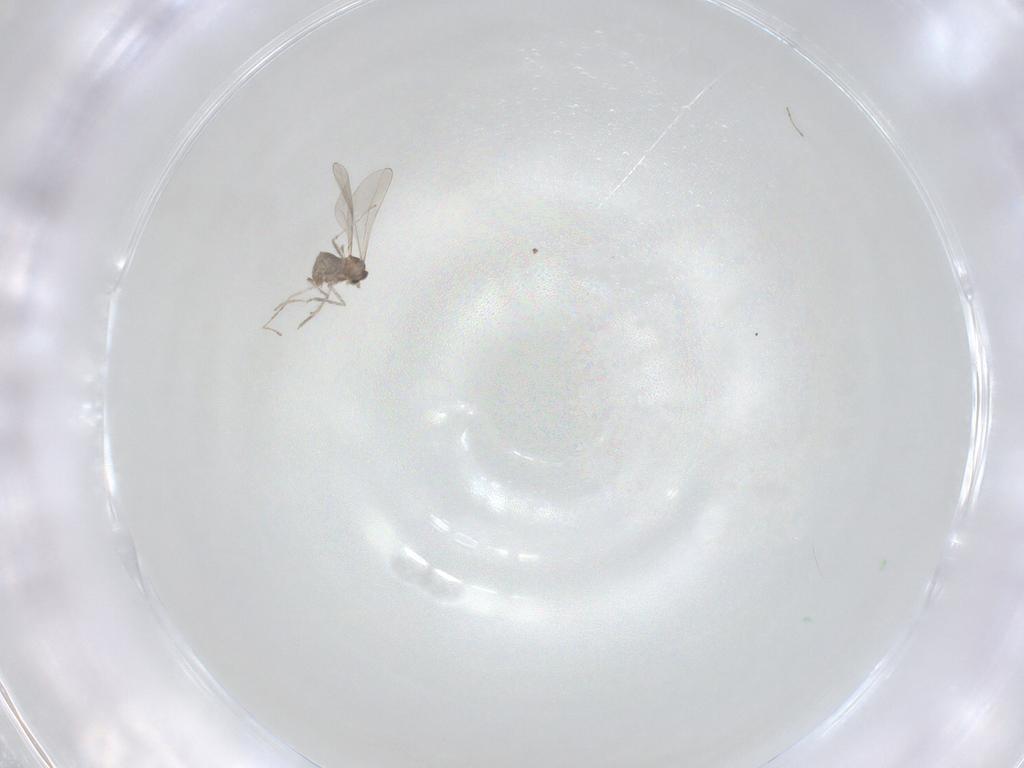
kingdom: Animalia
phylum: Arthropoda
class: Insecta
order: Diptera
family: Cecidomyiidae
